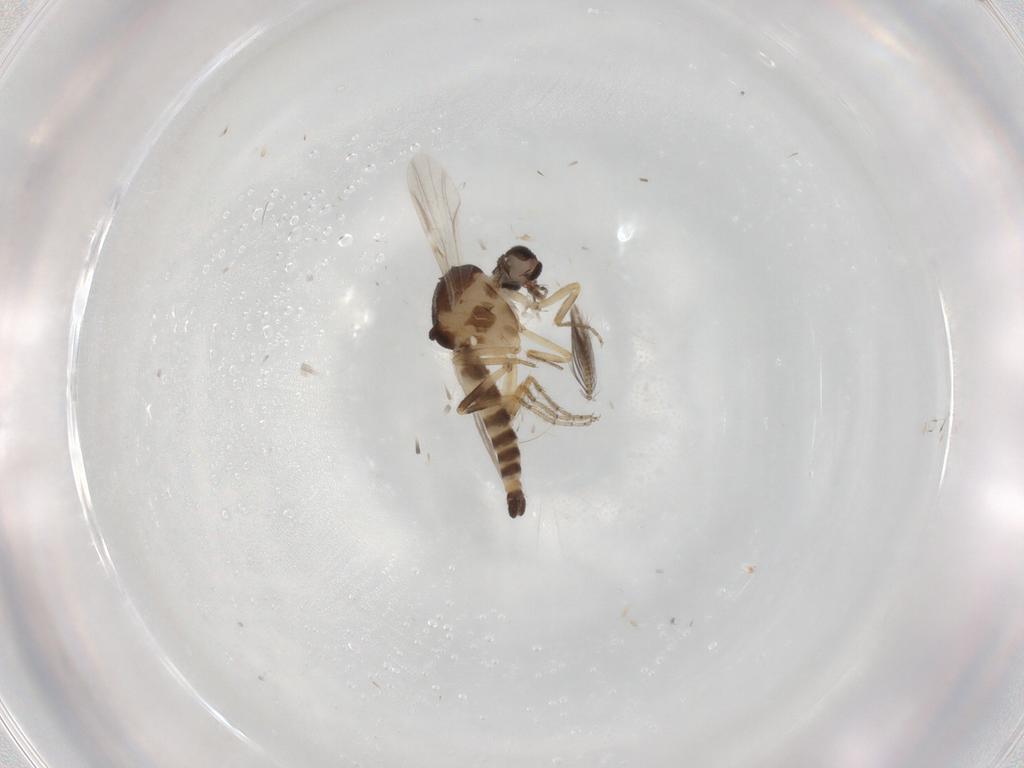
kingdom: Animalia
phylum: Arthropoda
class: Insecta
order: Diptera
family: Ceratopogonidae
